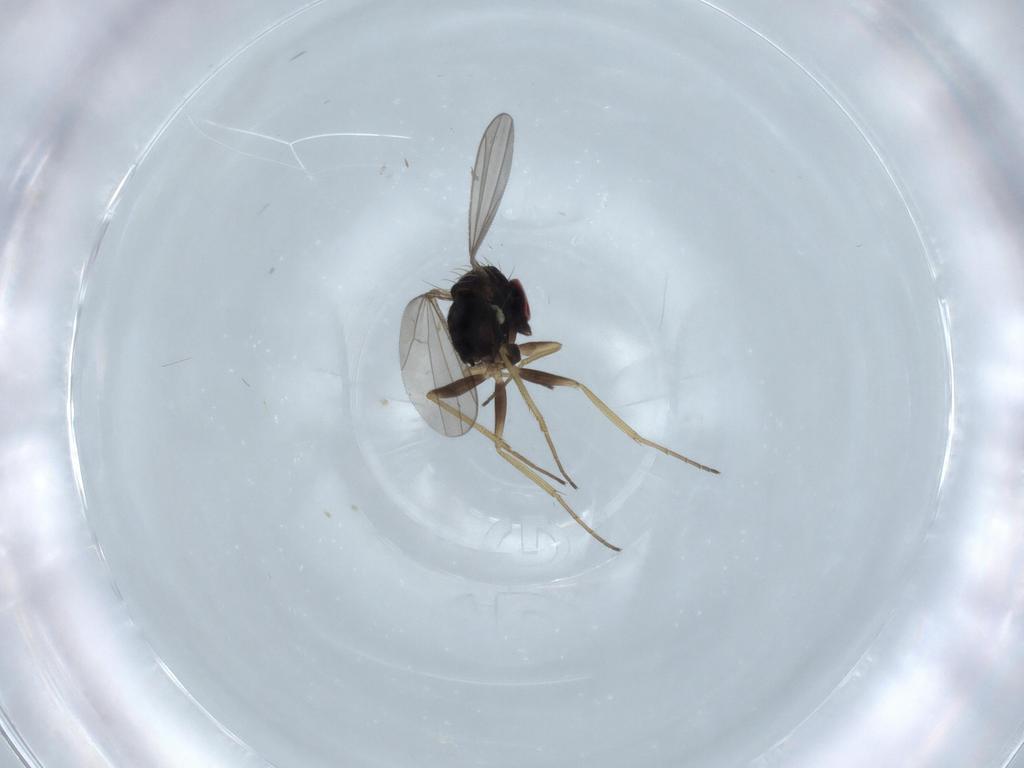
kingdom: Animalia
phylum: Arthropoda
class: Insecta
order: Diptera
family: Dolichopodidae
